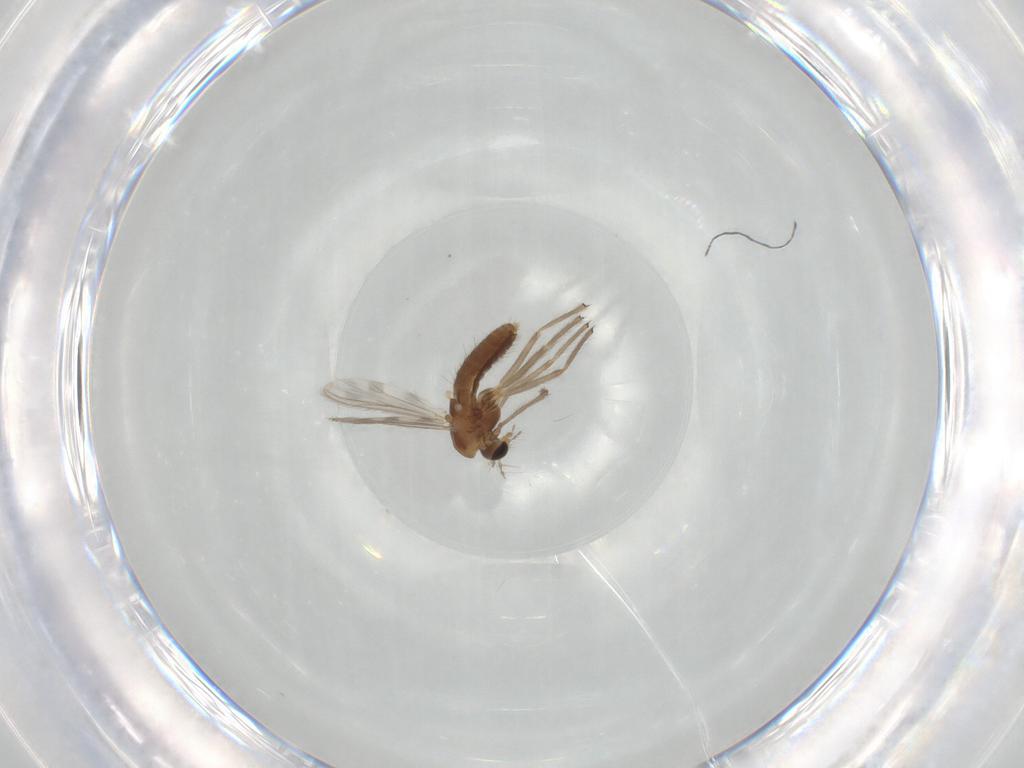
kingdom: Animalia
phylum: Arthropoda
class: Insecta
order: Diptera
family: Chironomidae
